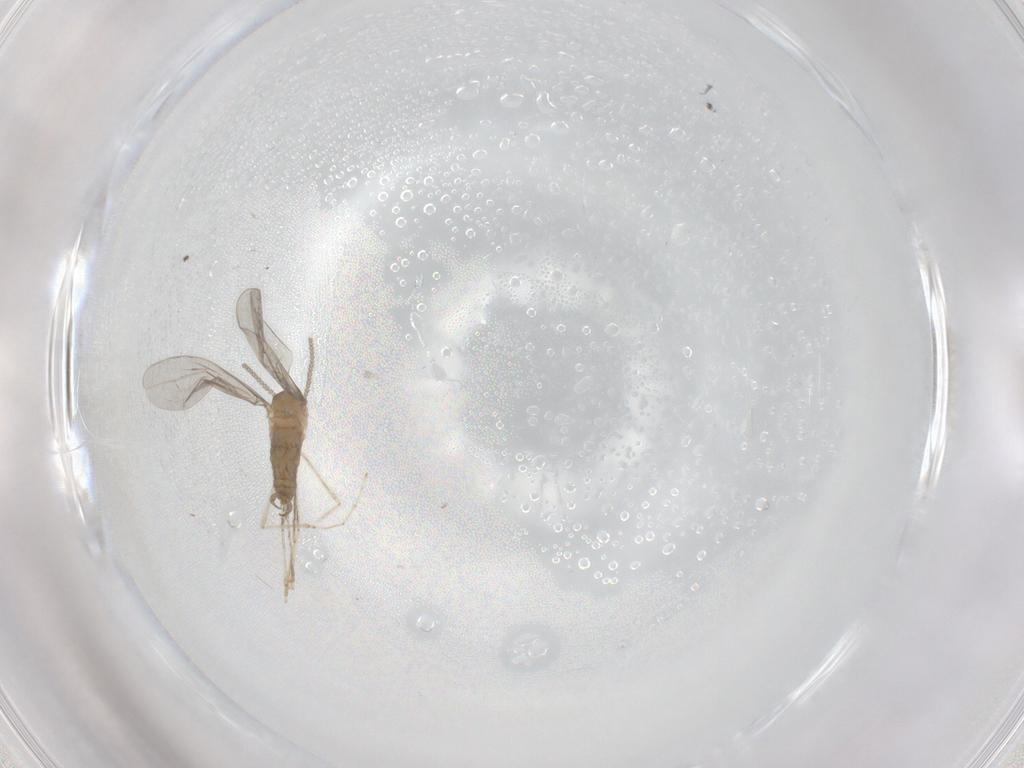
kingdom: Animalia
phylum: Arthropoda
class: Insecta
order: Diptera
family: Cecidomyiidae
